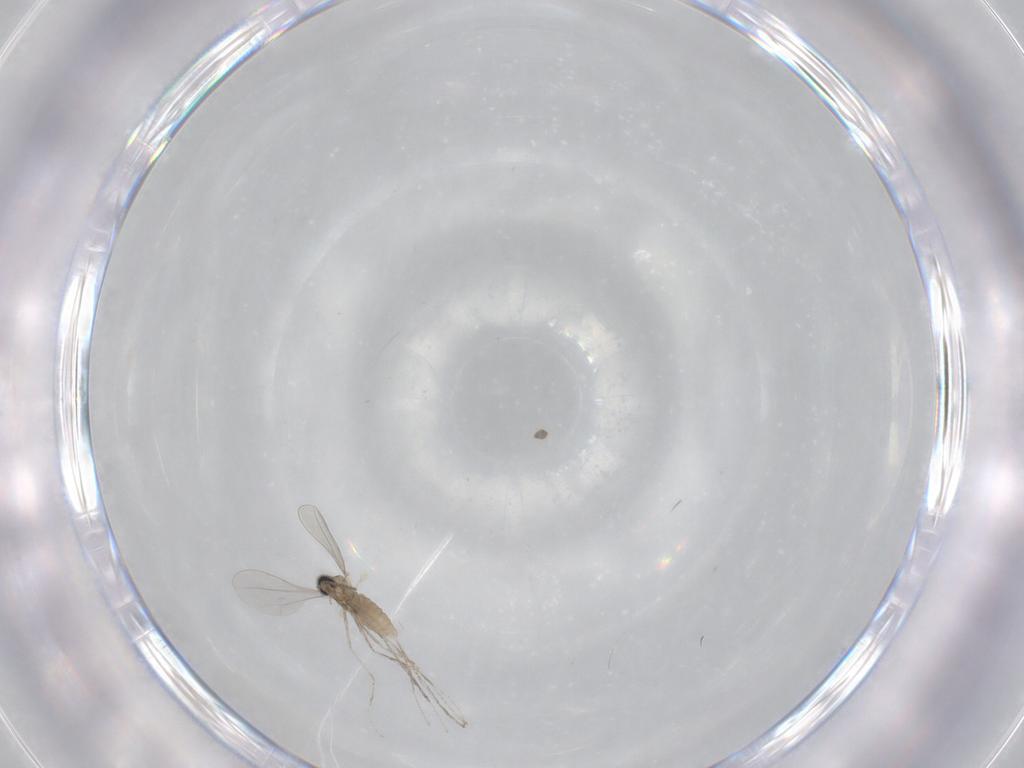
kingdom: Animalia
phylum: Arthropoda
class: Insecta
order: Diptera
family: Cecidomyiidae
